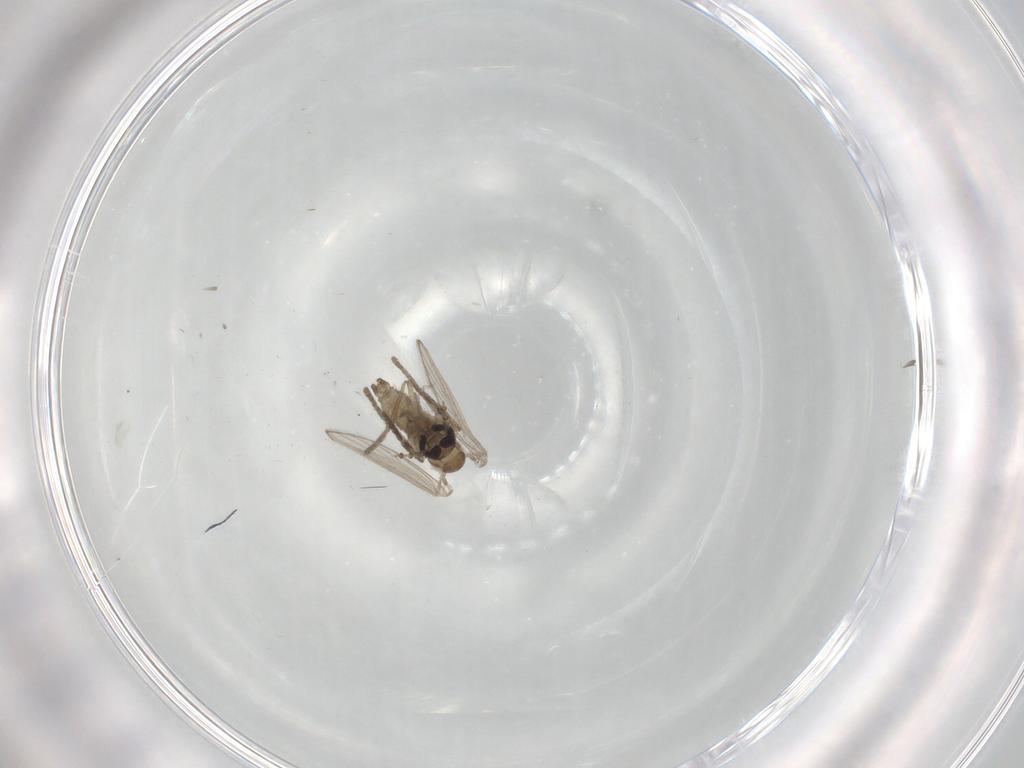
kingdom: Animalia
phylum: Arthropoda
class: Insecta
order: Diptera
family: Psychodidae
